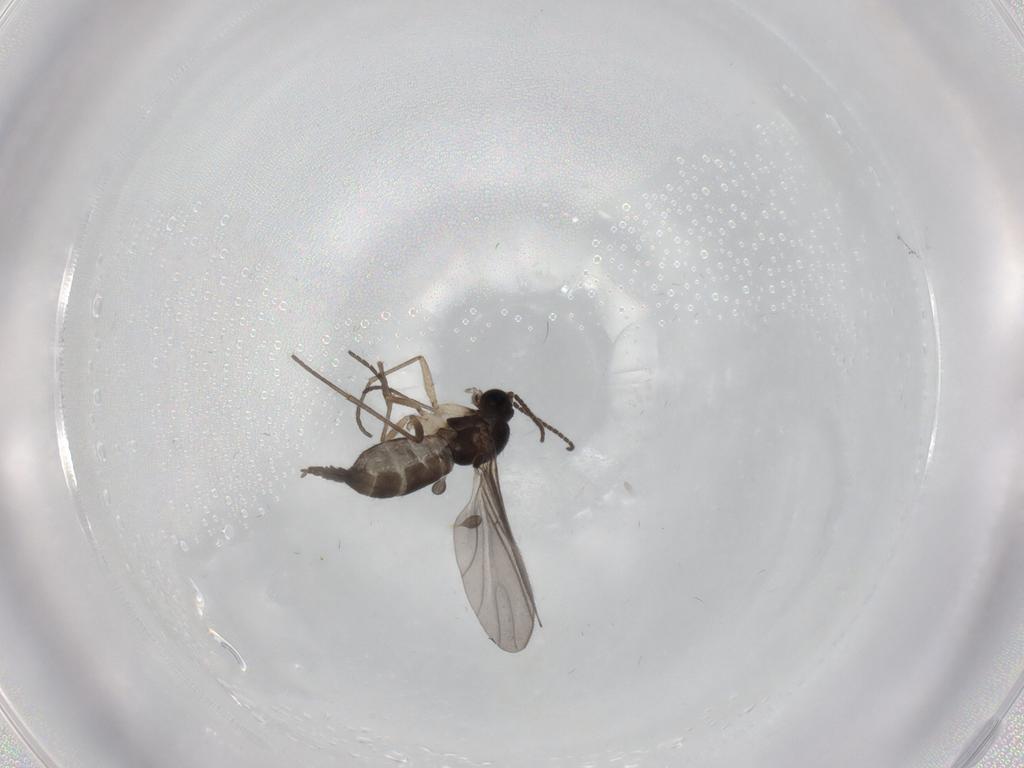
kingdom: Animalia
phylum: Arthropoda
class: Insecta
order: Diptera
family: Sciaridae
